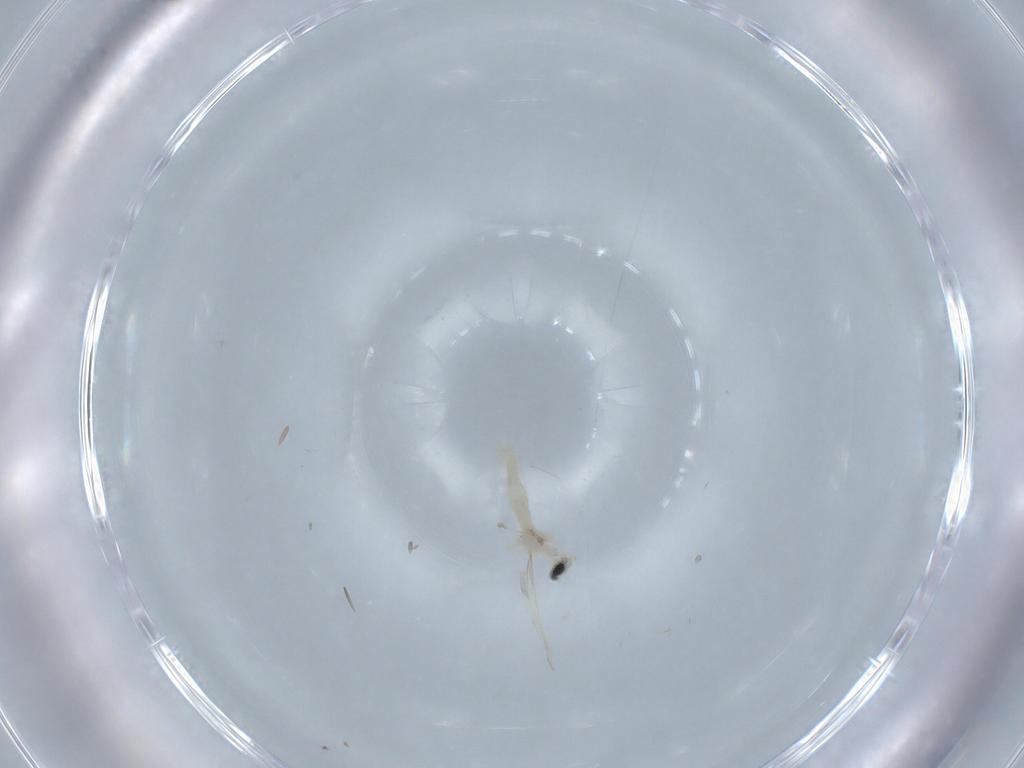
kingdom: Animalia
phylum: Arthropoda
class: Insecta
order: Diptera
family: Cecidomyiidae
